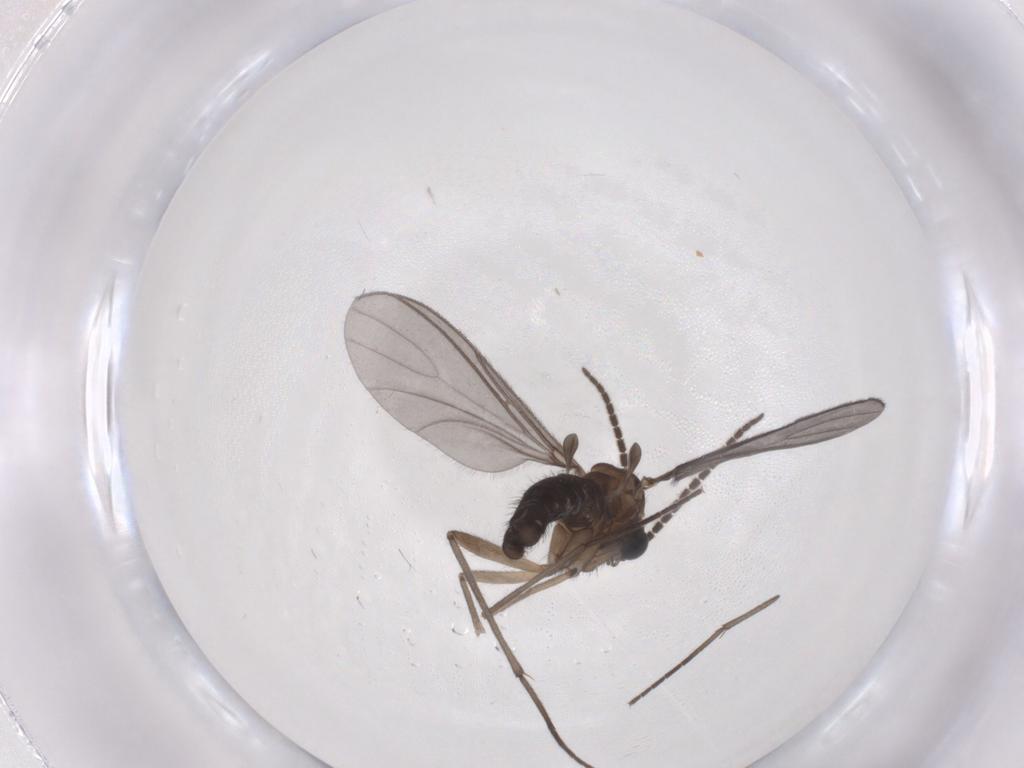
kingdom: Animalia
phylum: Arthropoda
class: Insecta
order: Diptera
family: Sciaridae
